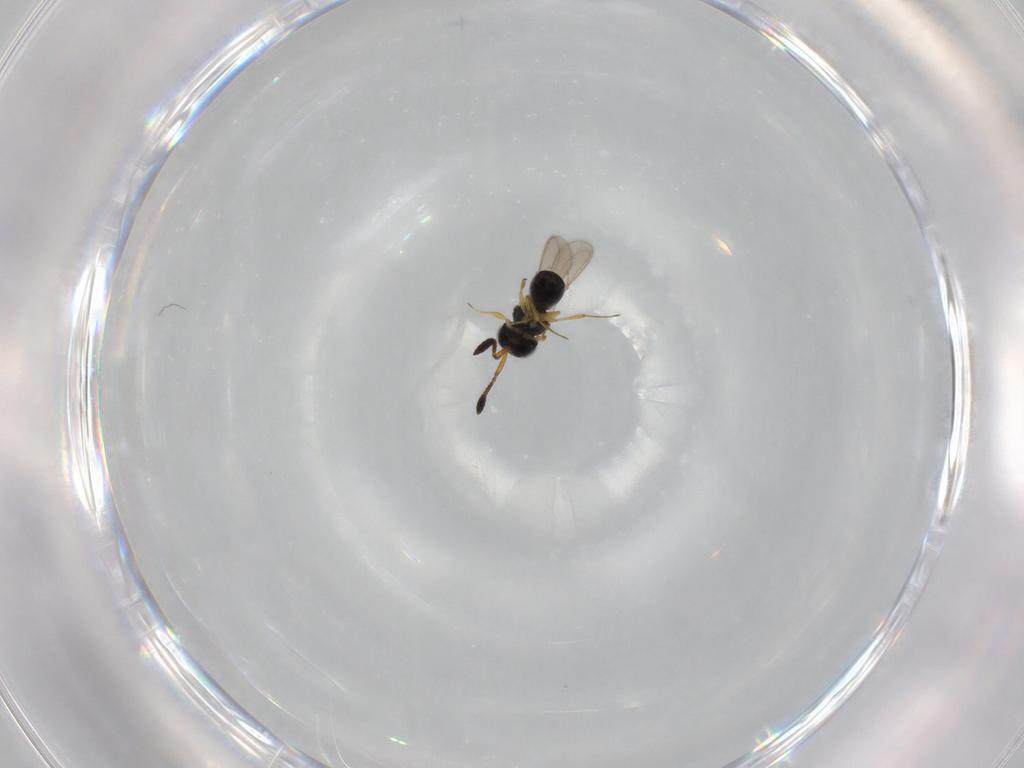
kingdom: Animalia
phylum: Arthropoda
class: Insecta
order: Hymenoptera
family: Scelionidae
